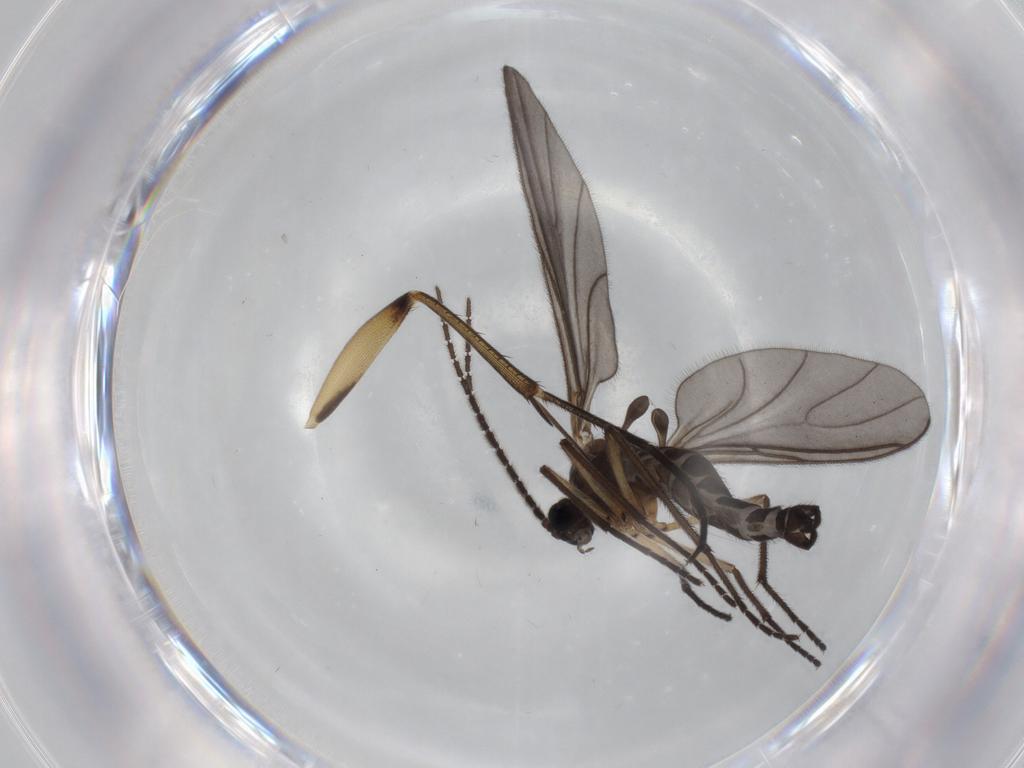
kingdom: Animalia
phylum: Arthropoda
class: Insecta
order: Diptera
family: Sciaridae
